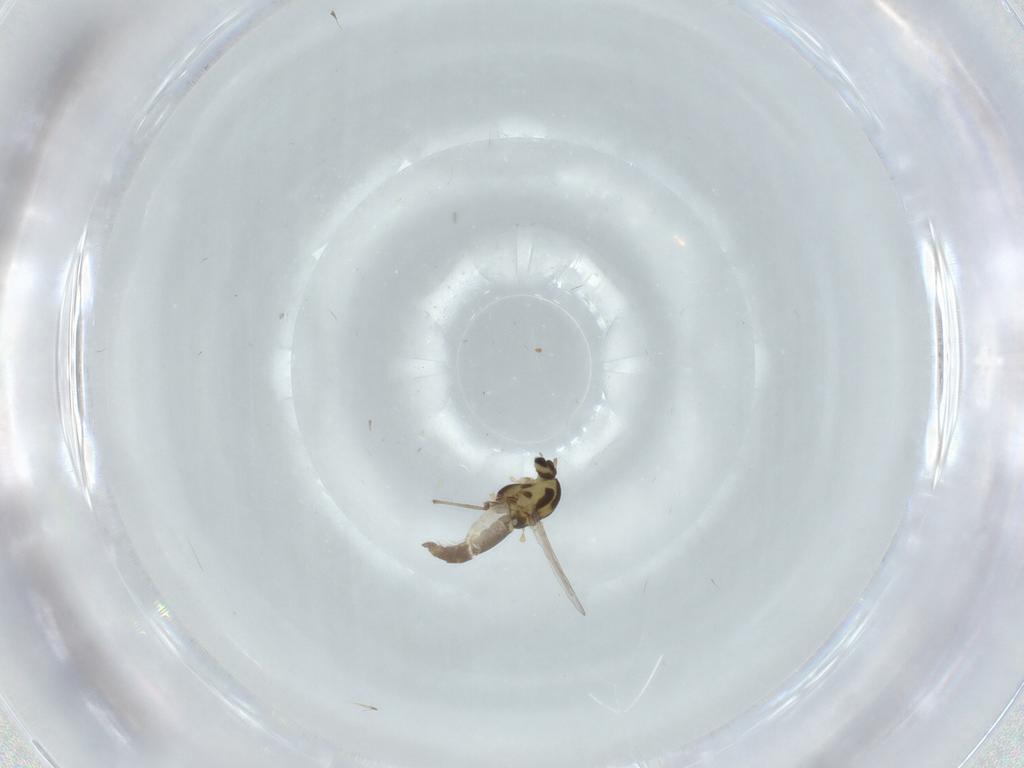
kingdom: Animalia
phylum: Arthropoda
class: Insecta
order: Diptera
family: Chironomidae
